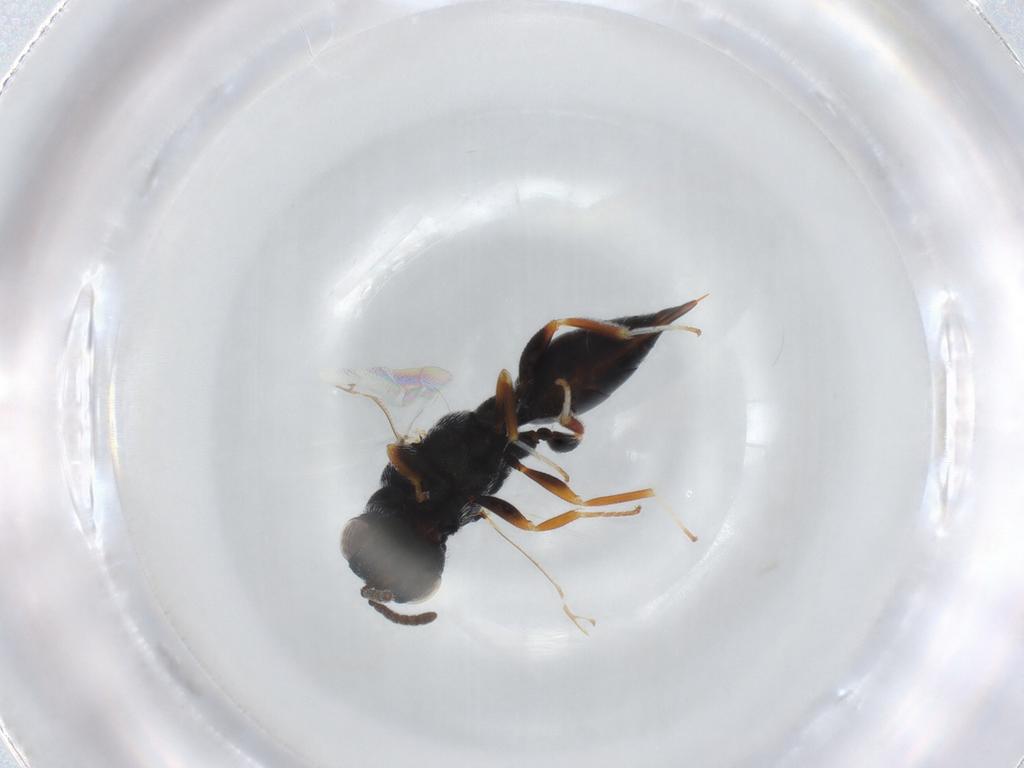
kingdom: Animalia
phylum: Arthropoda
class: Insecta
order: Hymenoptera
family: Eurytomidae
